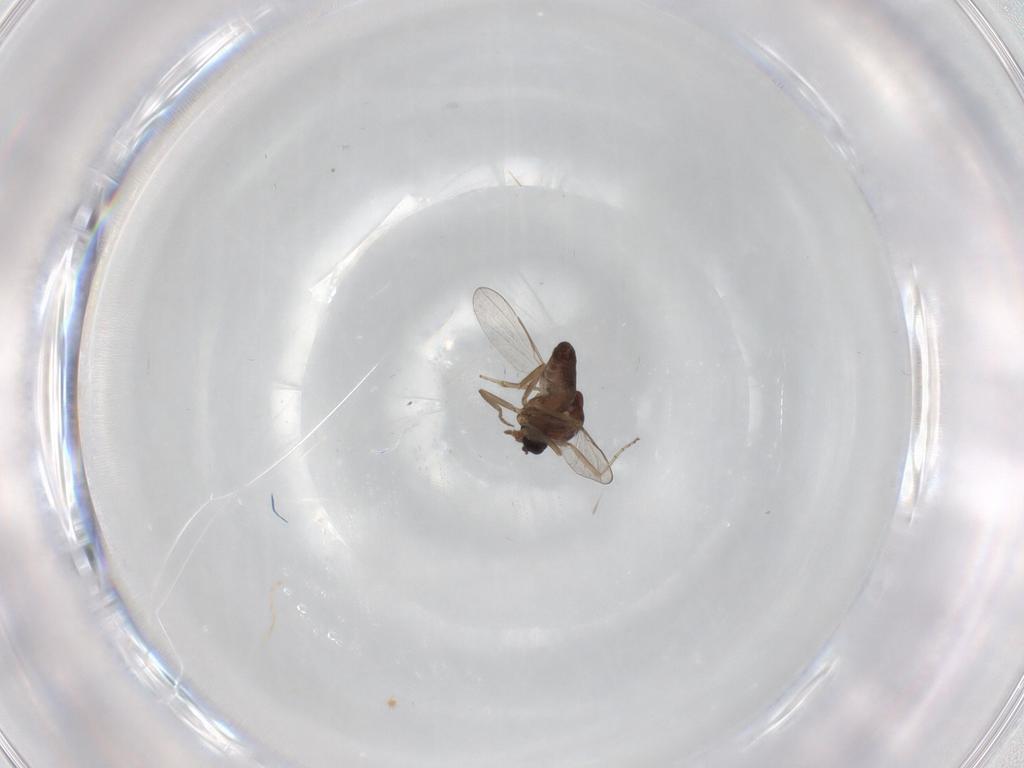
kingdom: Animalia
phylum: Arthropoda
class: Insecta
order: Diptera
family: Ceratopogonidae
